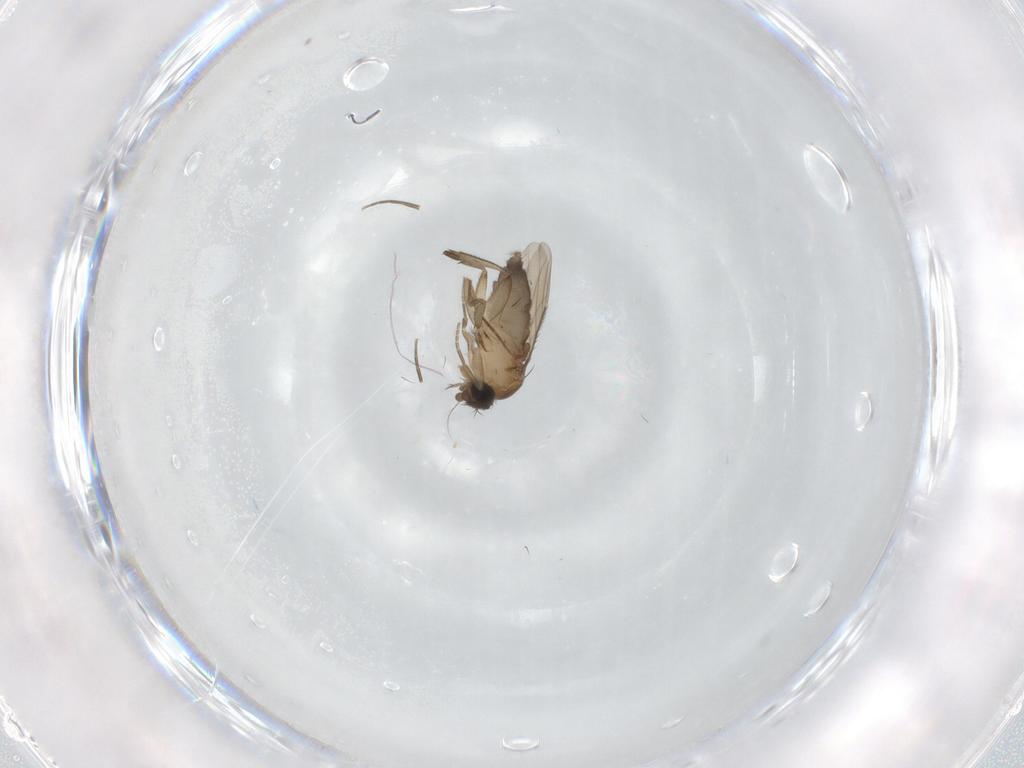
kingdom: Animalia
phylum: Arthropoda
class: Insecta
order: Diptera
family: Phoridae
